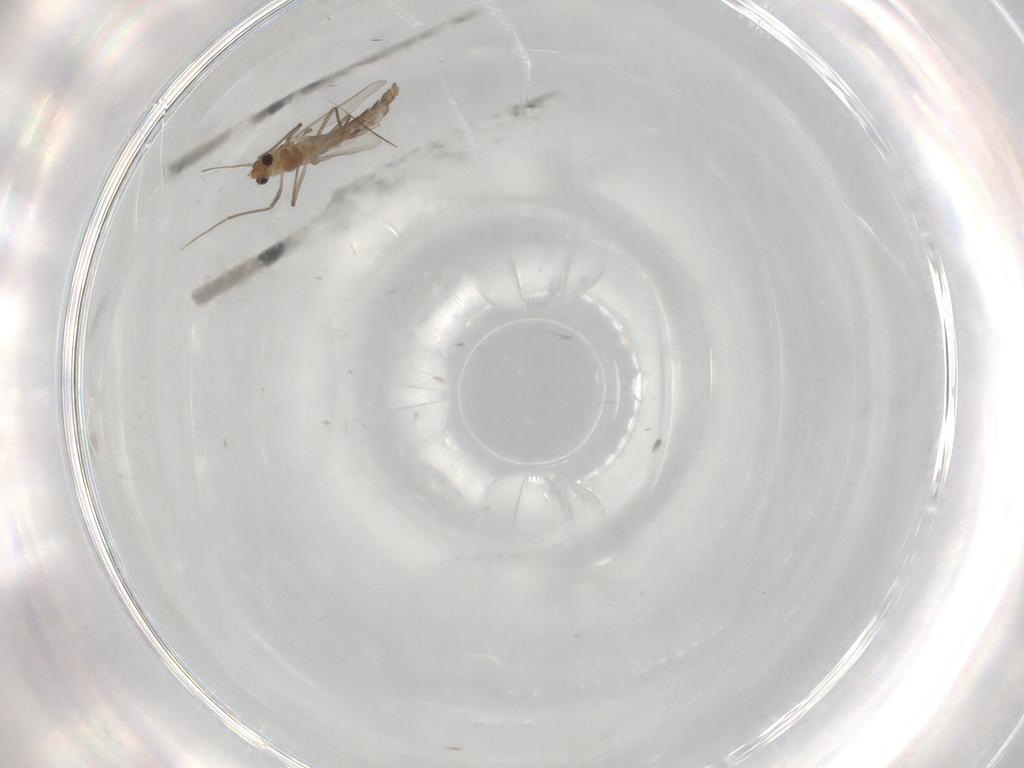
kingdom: Animalia
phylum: Arthropoda
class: Insecta
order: Diptera
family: Chironomidae
